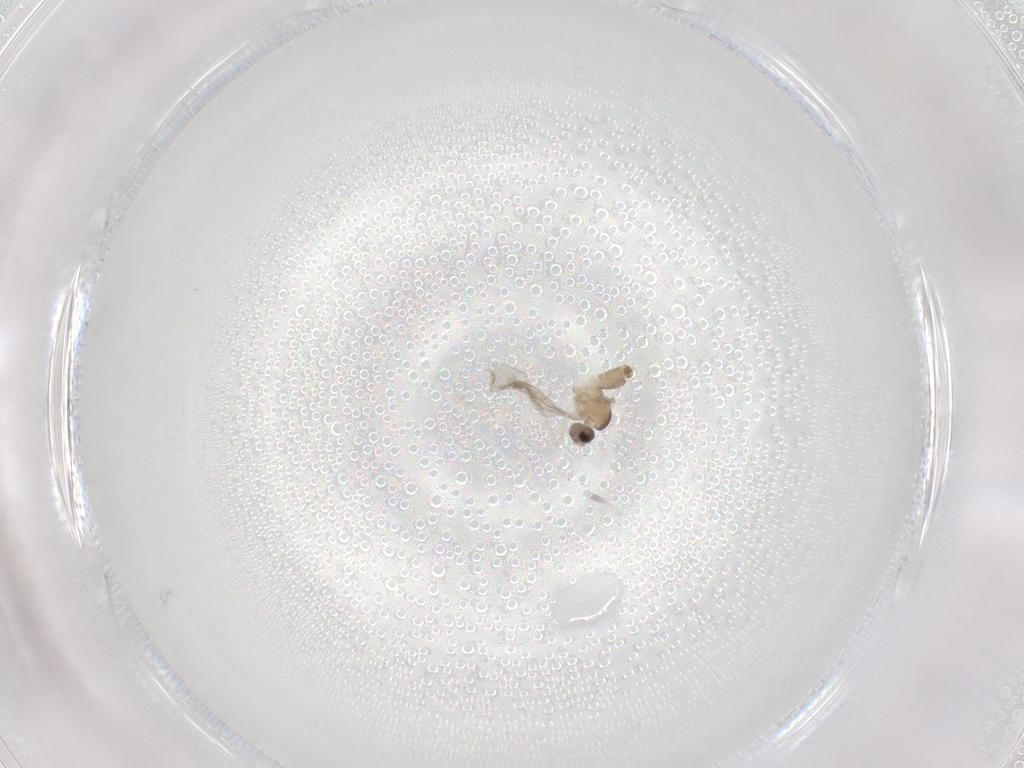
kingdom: Animalia
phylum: Arthropoda
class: Insecta
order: Diptera
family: Cecidomyiidae
